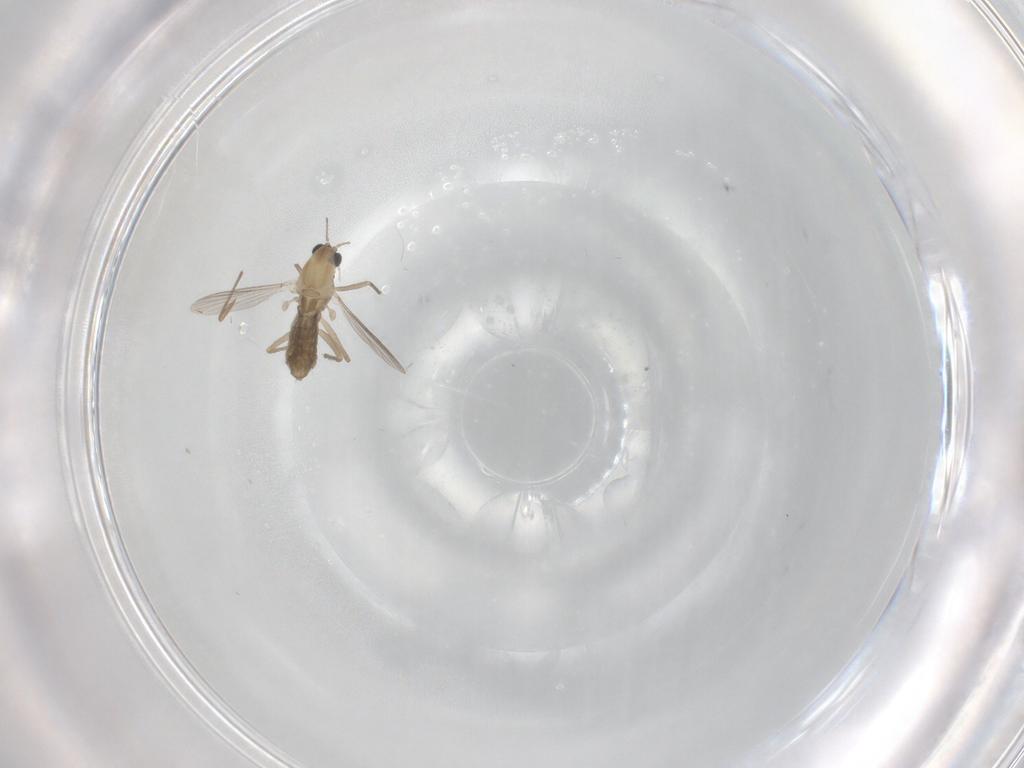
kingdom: Animalia
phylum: Arthropoda
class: Insecta
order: Diptera
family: Chironomidae
